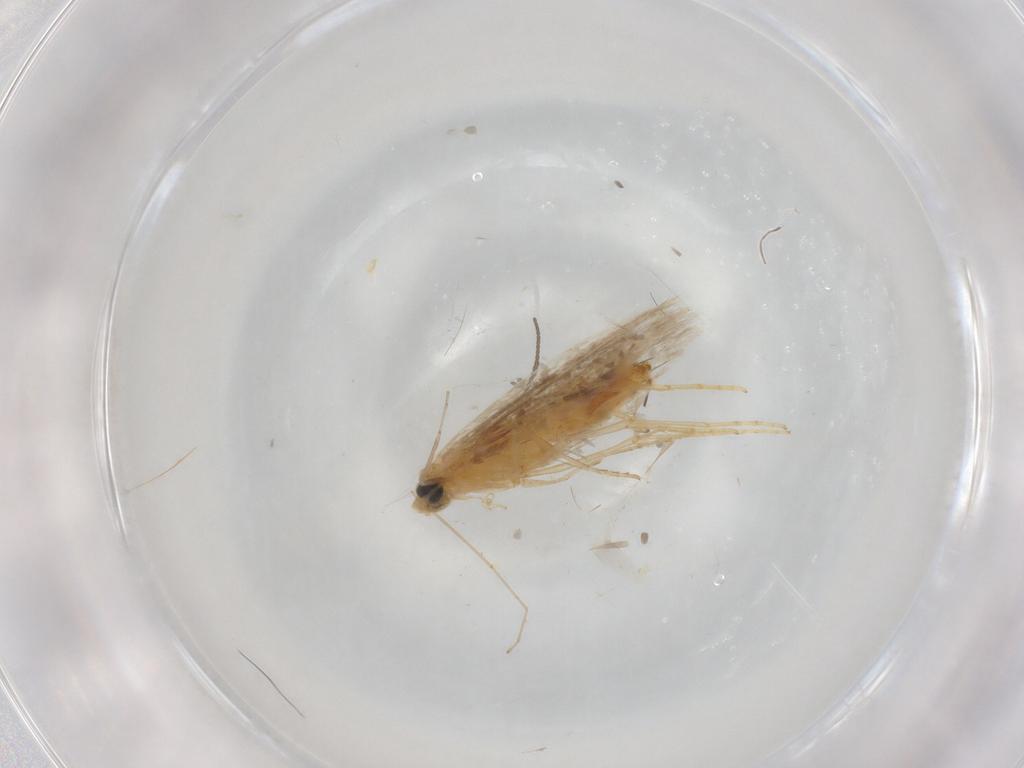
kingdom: Animalia
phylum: Arthropoda
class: Insecta
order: Lepidoptera
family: Tischeriidae
